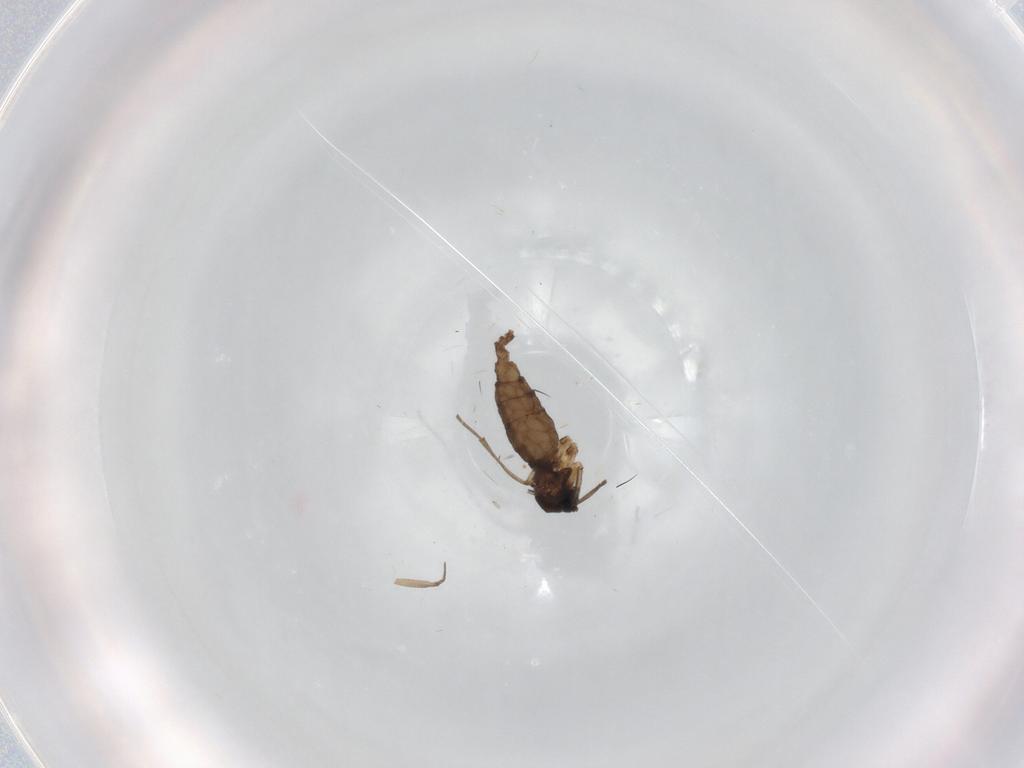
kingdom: Animalia
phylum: Arthropoda
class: Insecta
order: Diptera
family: Sciaridae
